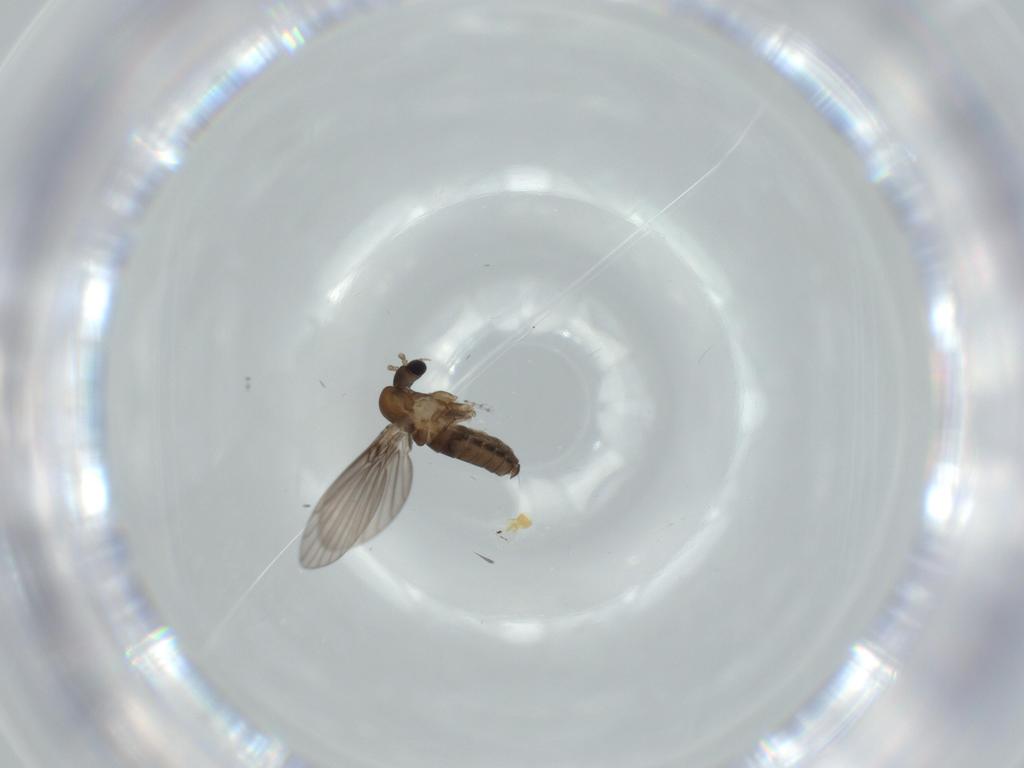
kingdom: Animalia
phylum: Arthropoda
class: Insecta
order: Diptera
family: Psychodidae
